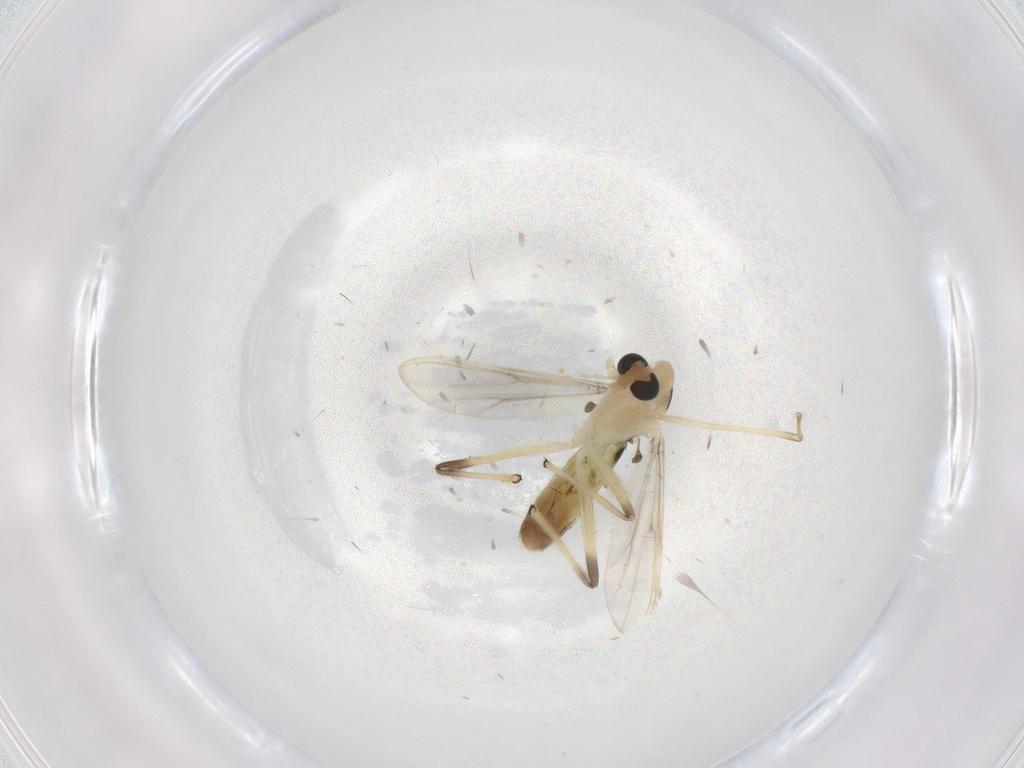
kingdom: Animalia
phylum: Arthropoda
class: Insecta
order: Diptera
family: Chironomidae
